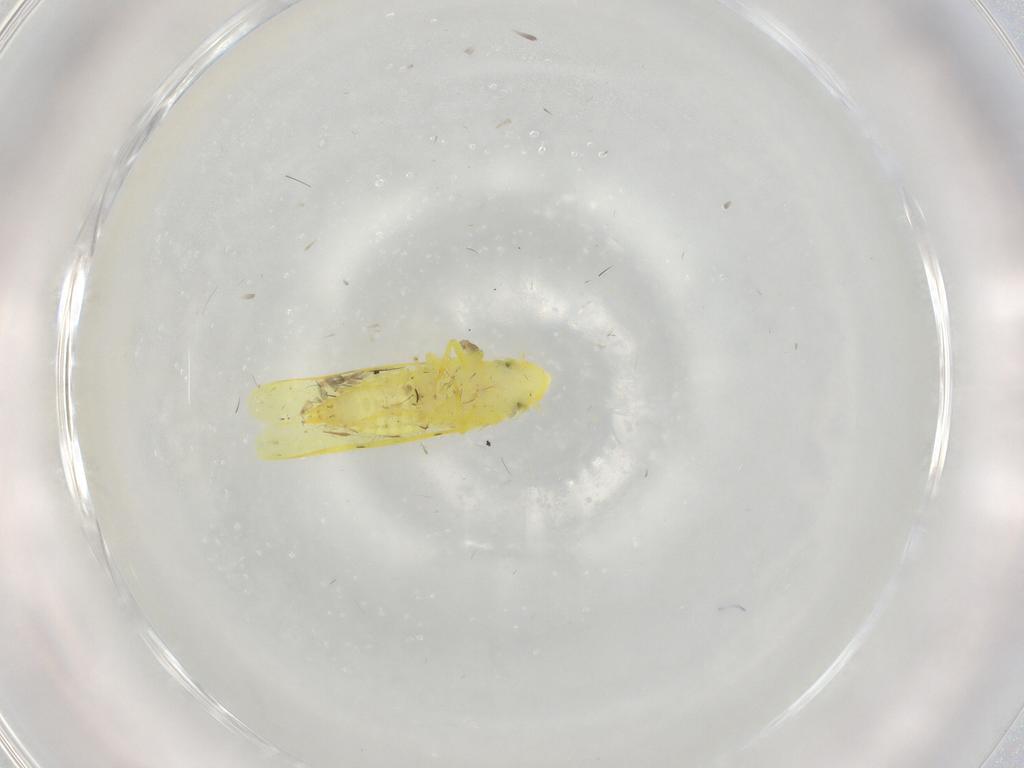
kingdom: Animalia
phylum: Arthropoda
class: Insecta
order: Hemiptera
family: Cicadellidae
